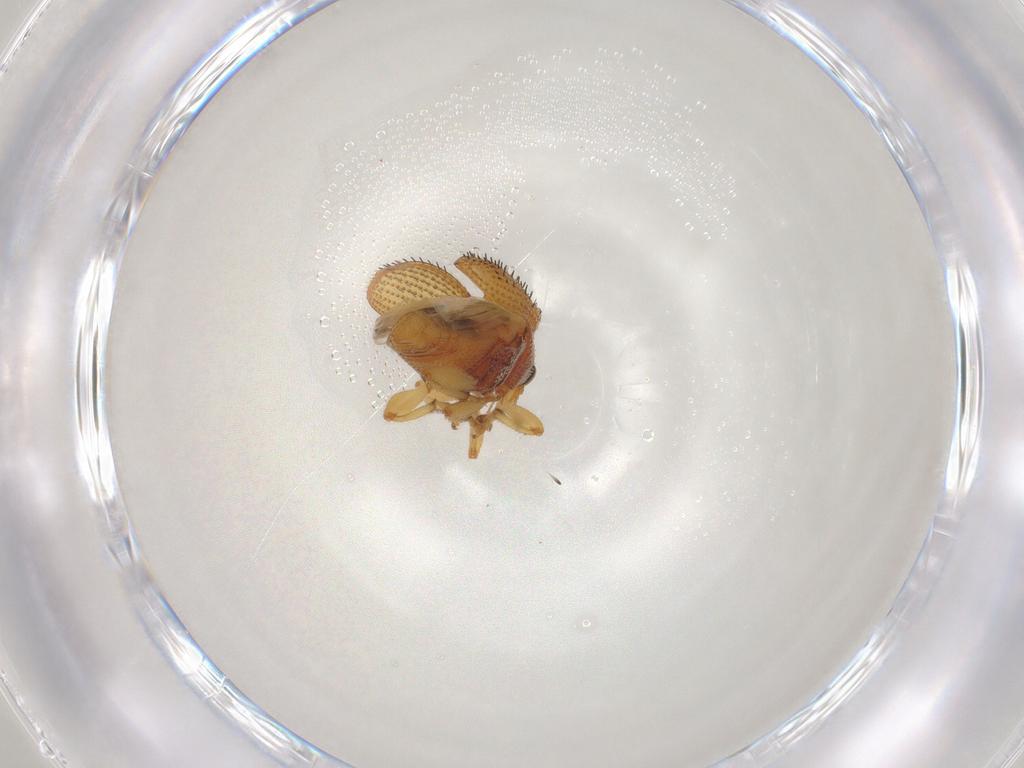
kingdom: Animalia
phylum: Arthropoda
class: Insecta
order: Coleoptera
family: Curculionidae
